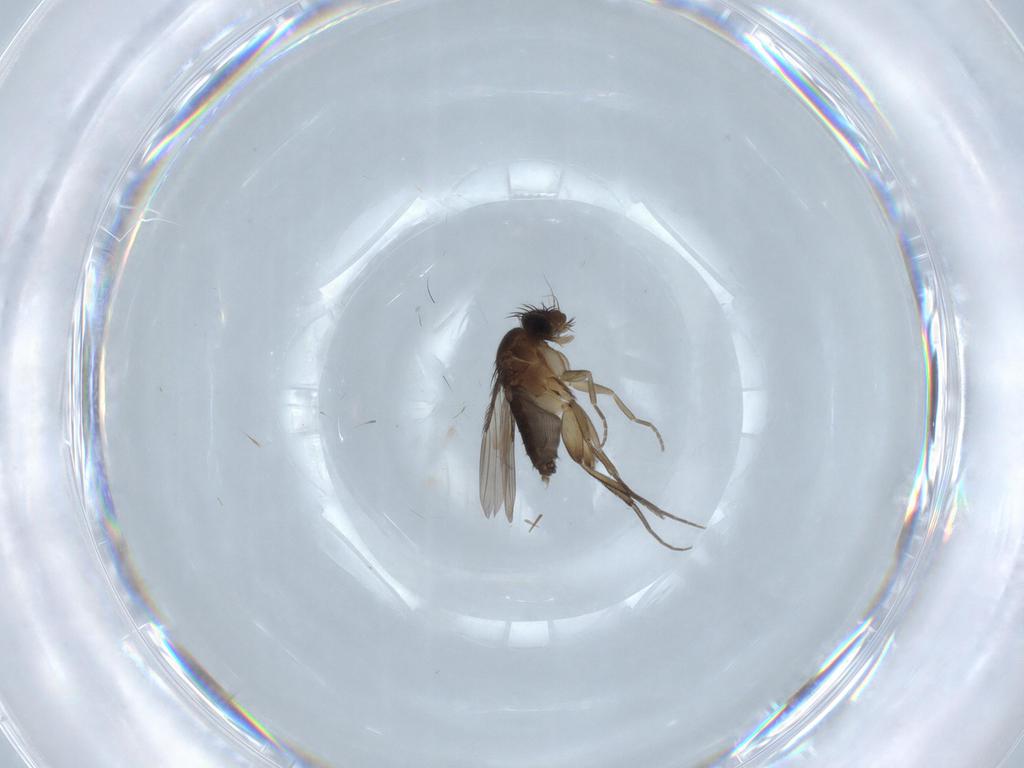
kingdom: Animalia
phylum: Arthropoda
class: Insecta
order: Diptera
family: Phoridae
